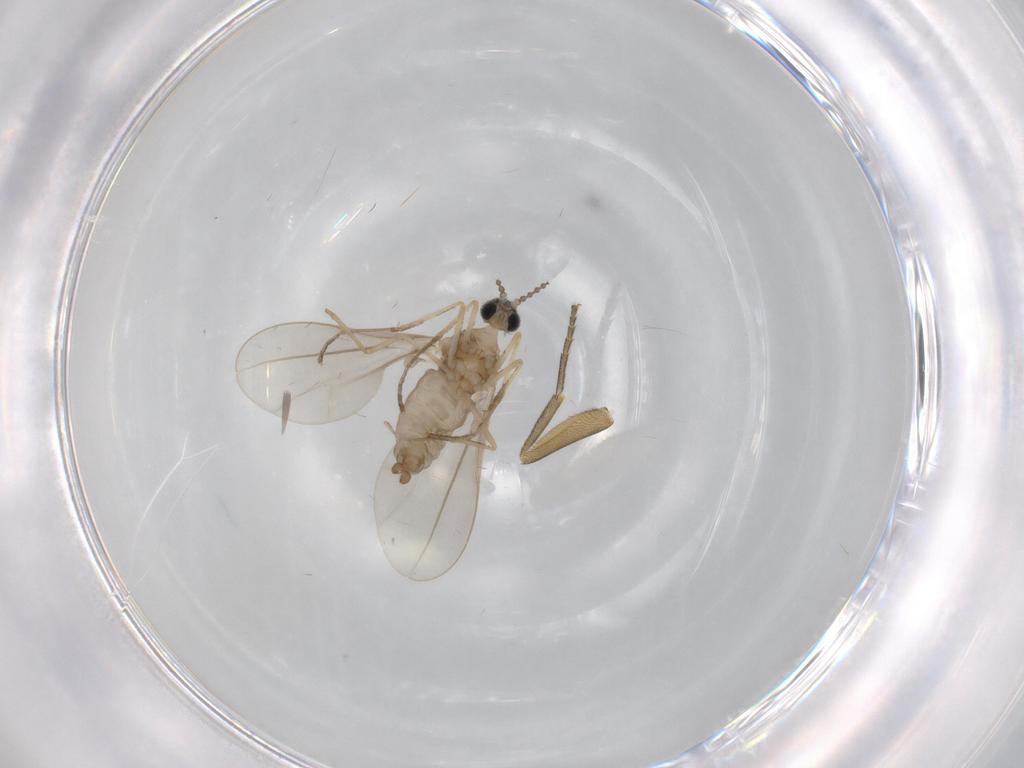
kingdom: Animalia
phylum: Arthropoda
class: Insecta
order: Diptera
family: Cecidomyiidae
